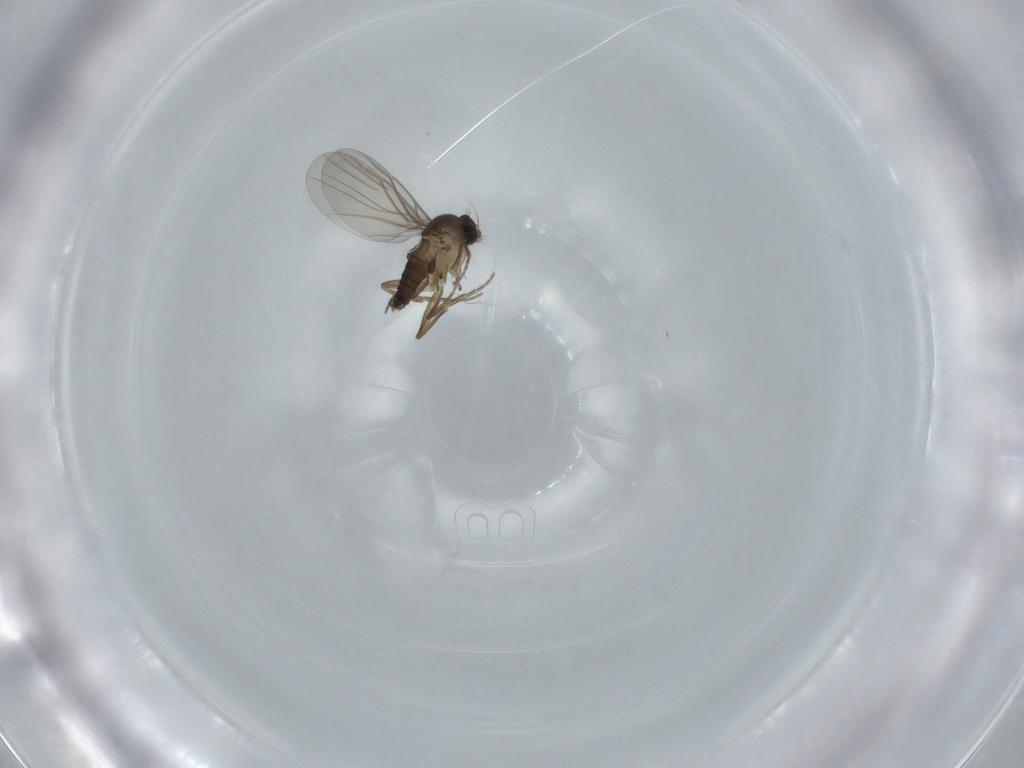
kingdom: Animalia
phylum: Arthropoda
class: Insecta
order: Diptera
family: Phoridae
